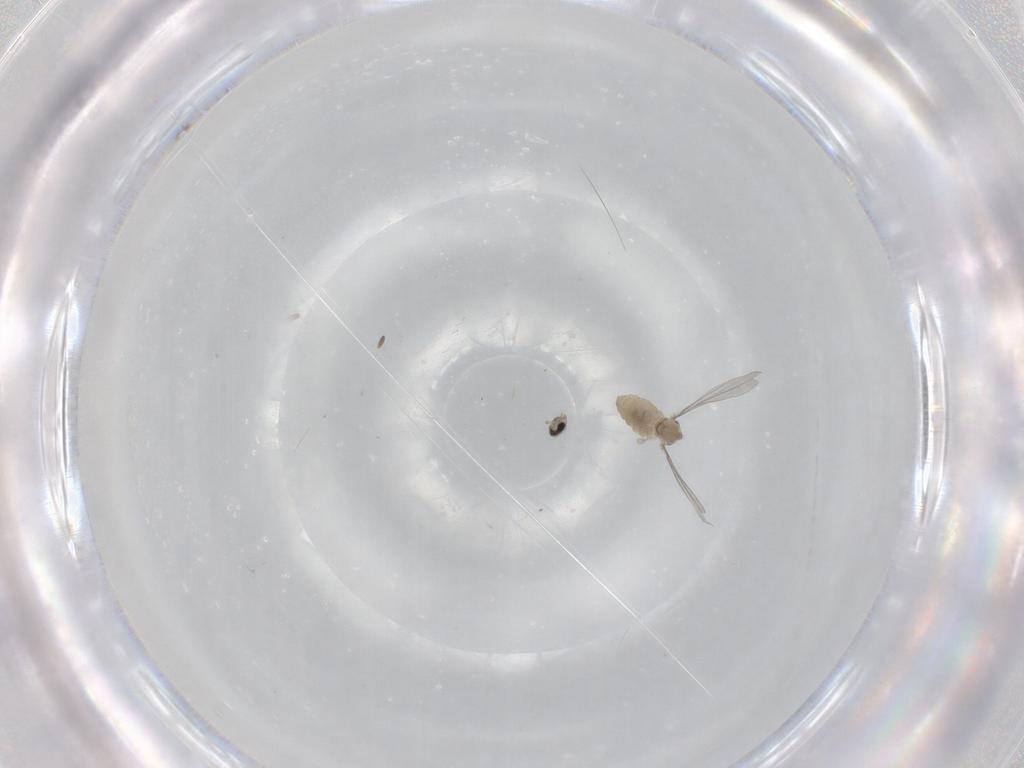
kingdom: Animalia
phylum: Arthropoda
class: Insecta
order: Diptera
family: Cecidomyiidae
